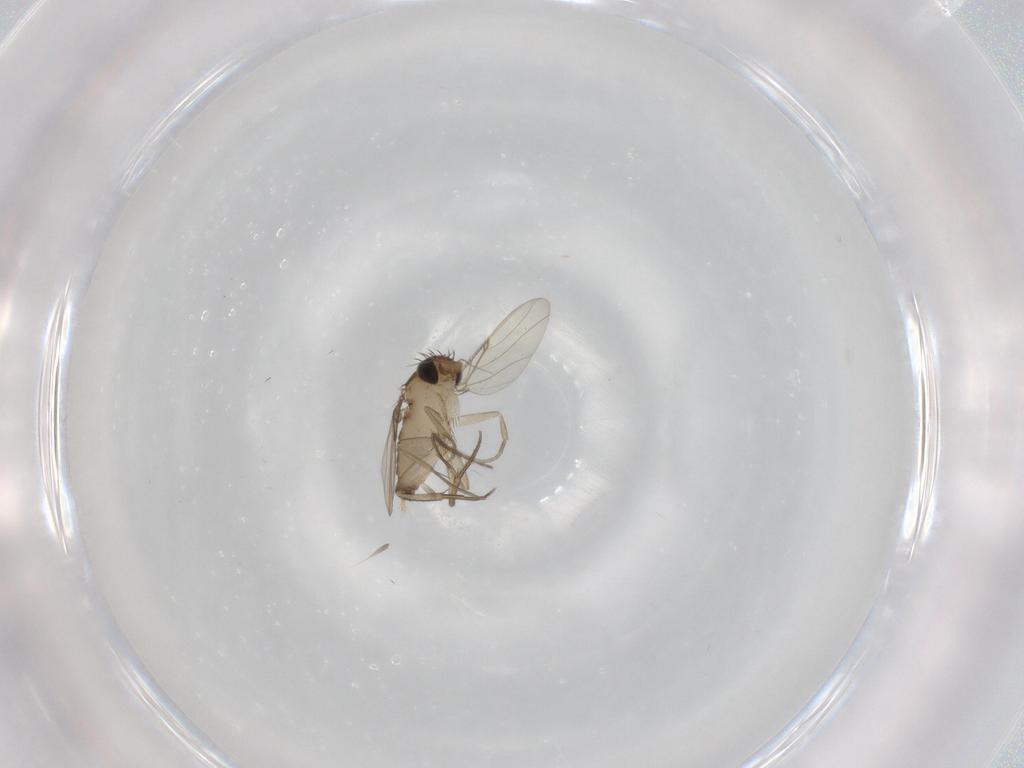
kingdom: Animalia
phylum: Arthropoda
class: Insecta
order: Diptera
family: Phoridae
